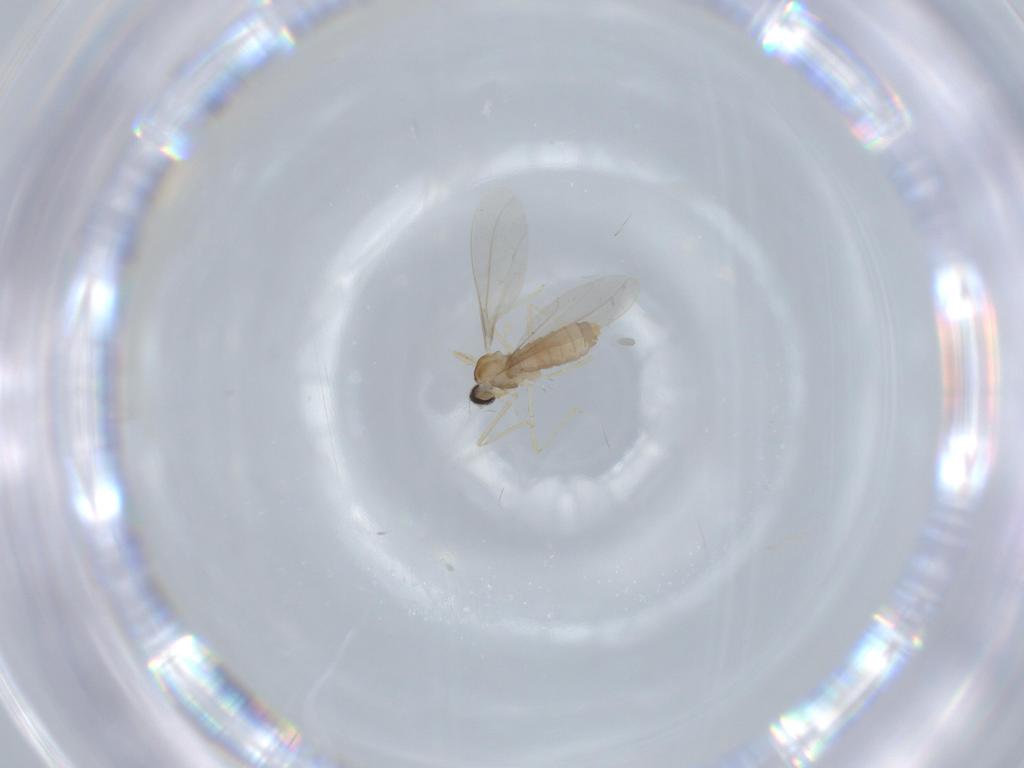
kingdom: Animalia
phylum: Arthropoda
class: Insecta
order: Diptera
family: Cecidomyiidae
